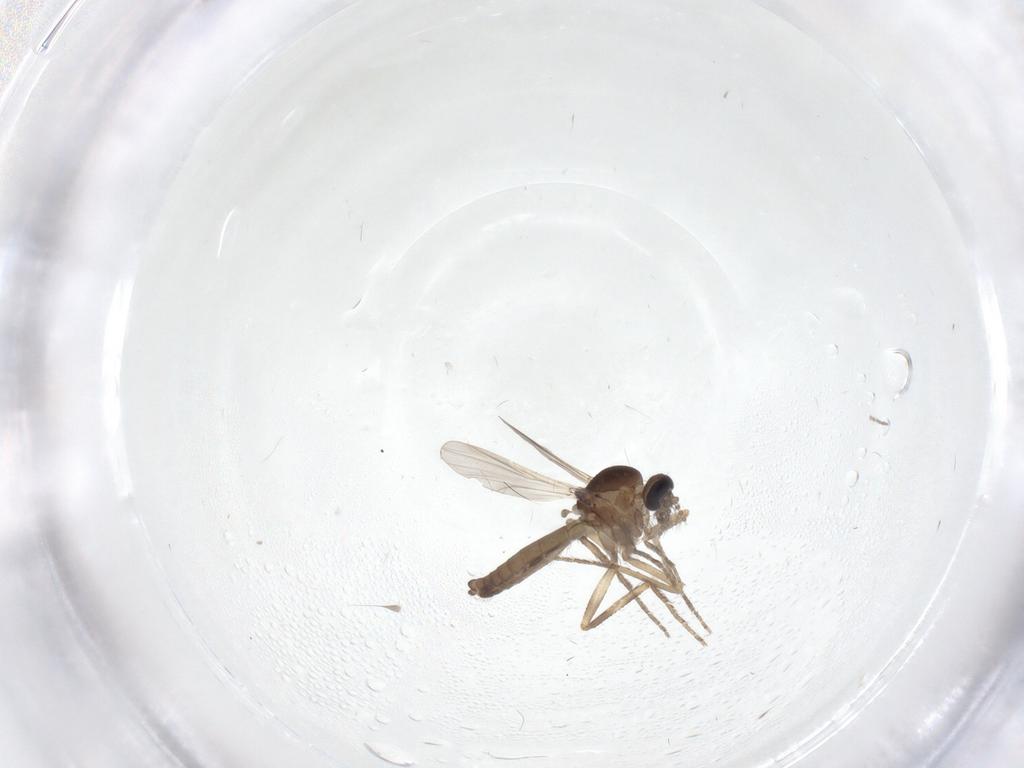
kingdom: Animalia
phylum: Arthropoda
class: Insecta
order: Diptera
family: Ceratopogonidae
